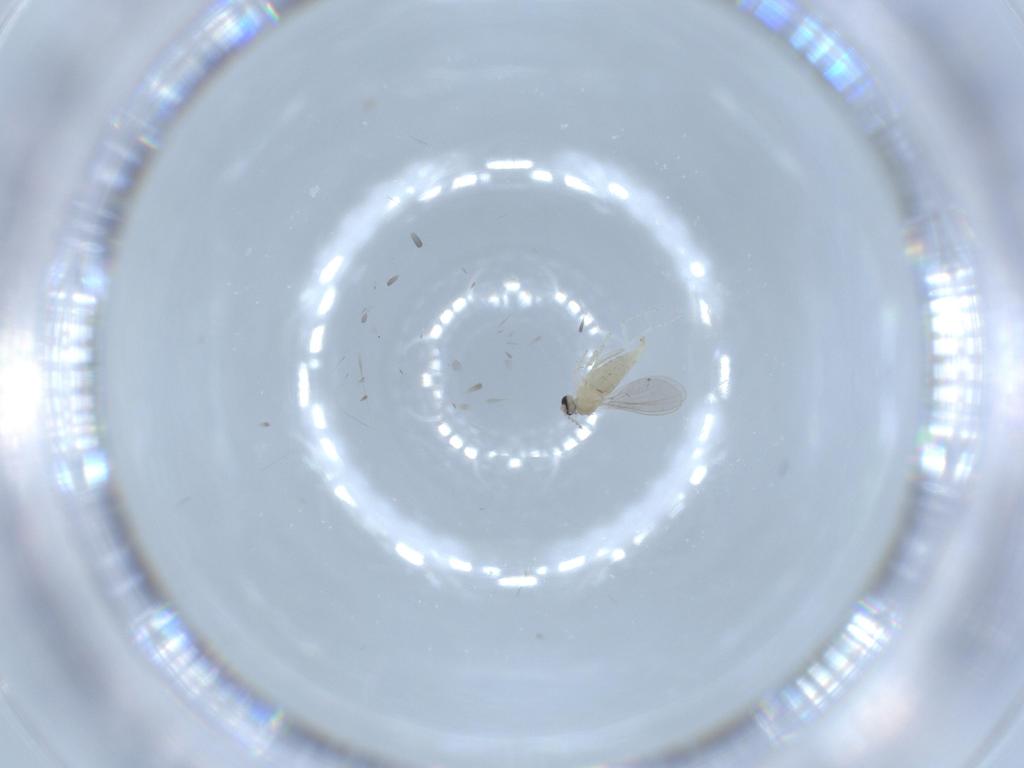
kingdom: Animalia
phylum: Arthropoda
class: Insecta
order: Diptera
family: Cecidomyiidae
